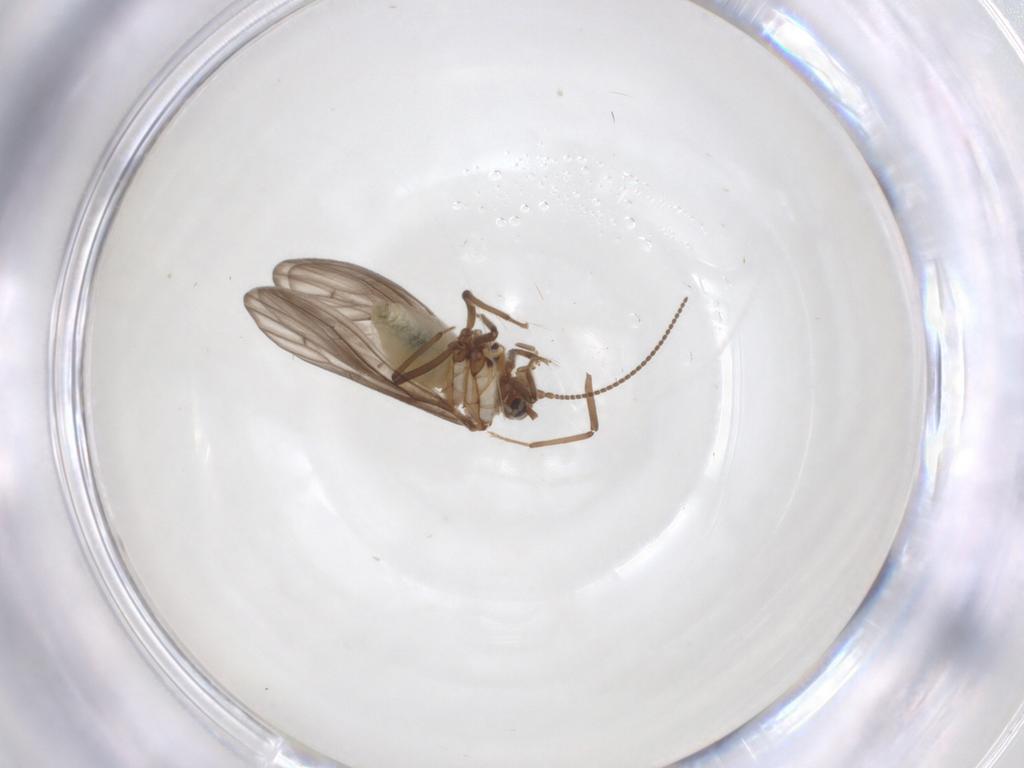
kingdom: Animalia
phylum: Arthropoda
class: Insecta
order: Neuroptera
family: Coniopterygidae
